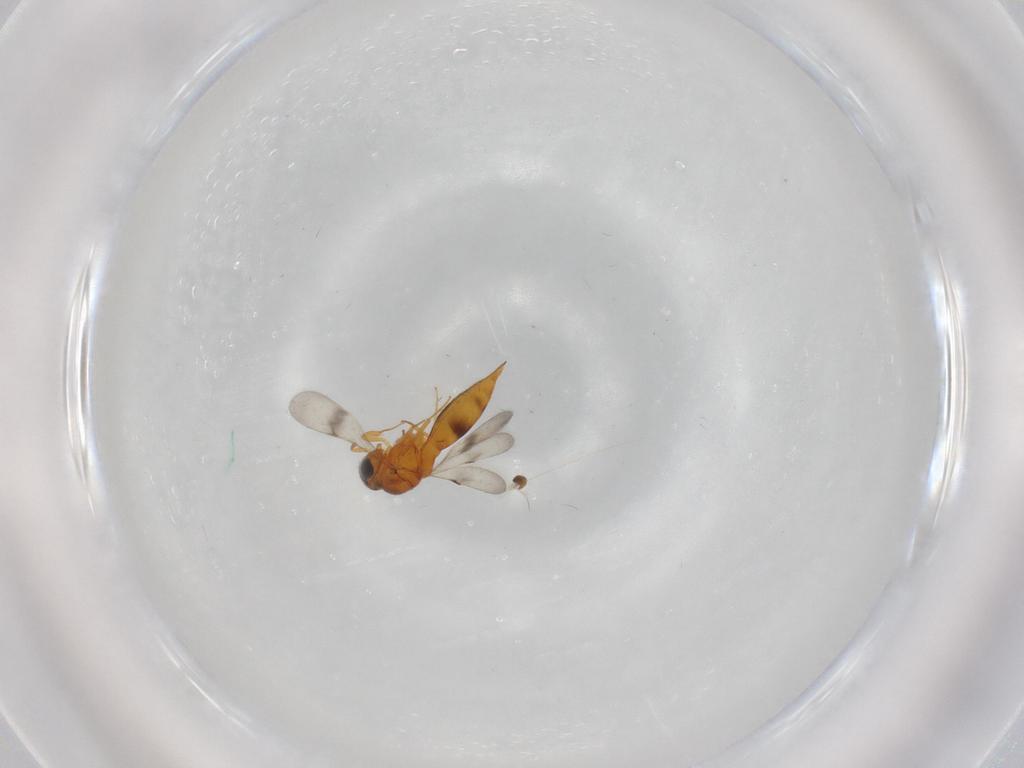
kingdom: Animalia
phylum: Arthropoda
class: Insecta
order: Hymenoptera
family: Scelionidae
